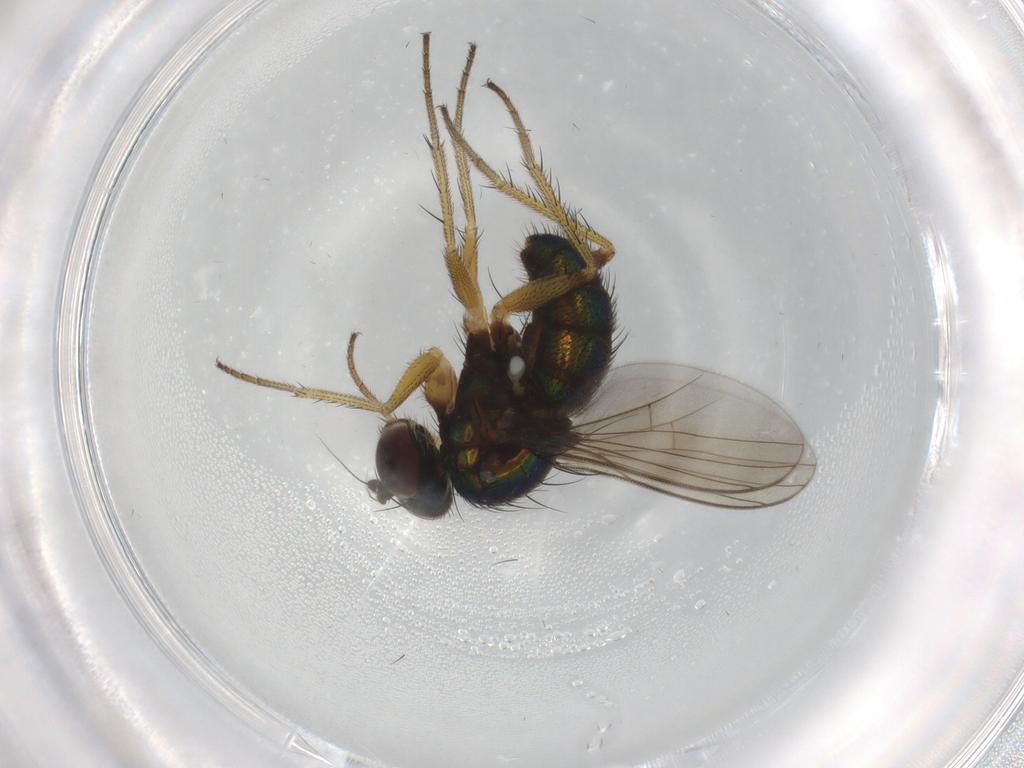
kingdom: Animalia
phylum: Arthropoda
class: Insecta
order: Diptera
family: Dolichopodidae
